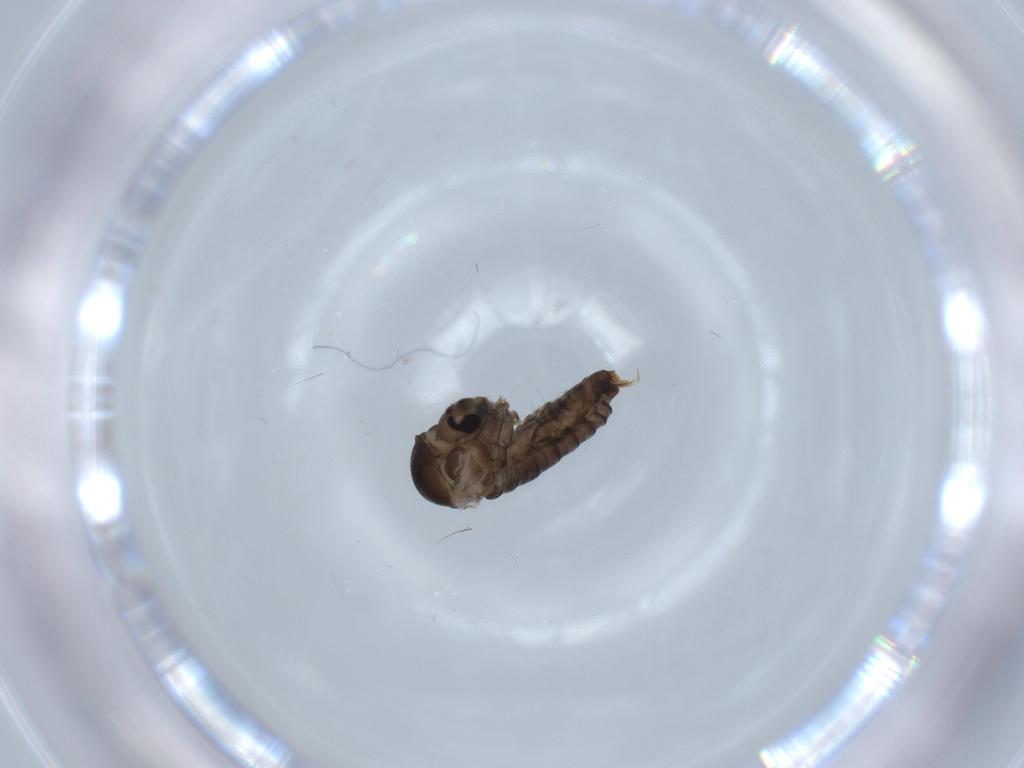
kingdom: Animalia
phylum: Arthropoda
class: Insecta
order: Diptera
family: Psychodidae
